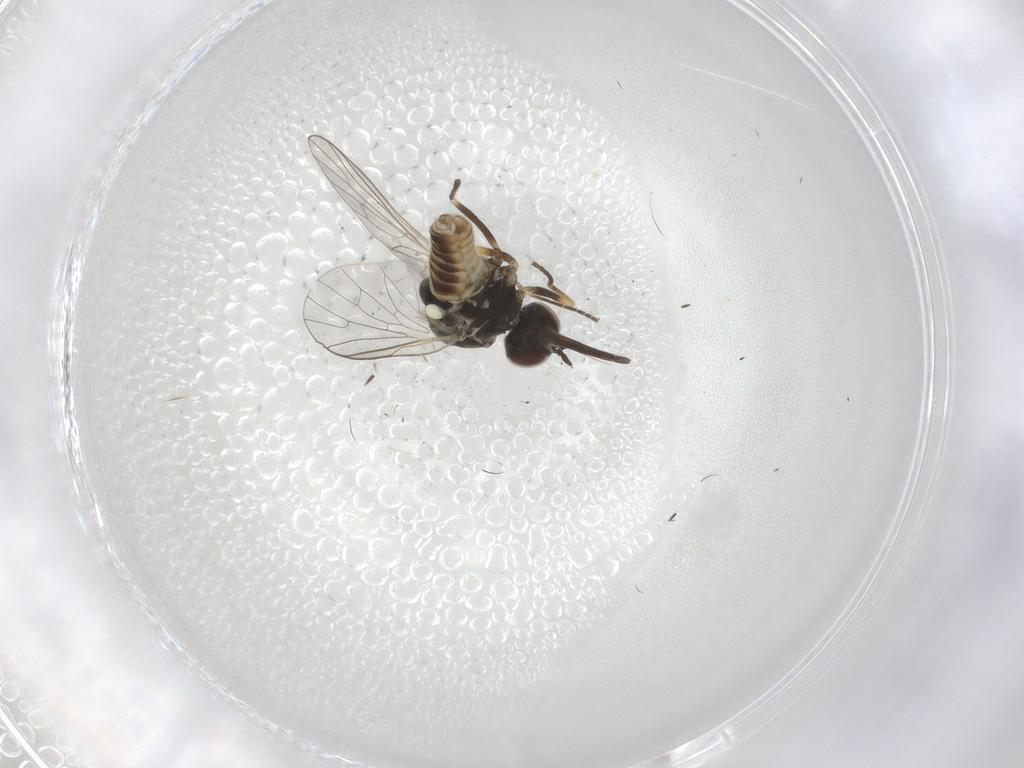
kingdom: Animalia
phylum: Arthropoda
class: Insecta
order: Diptera
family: Bombyliidae
